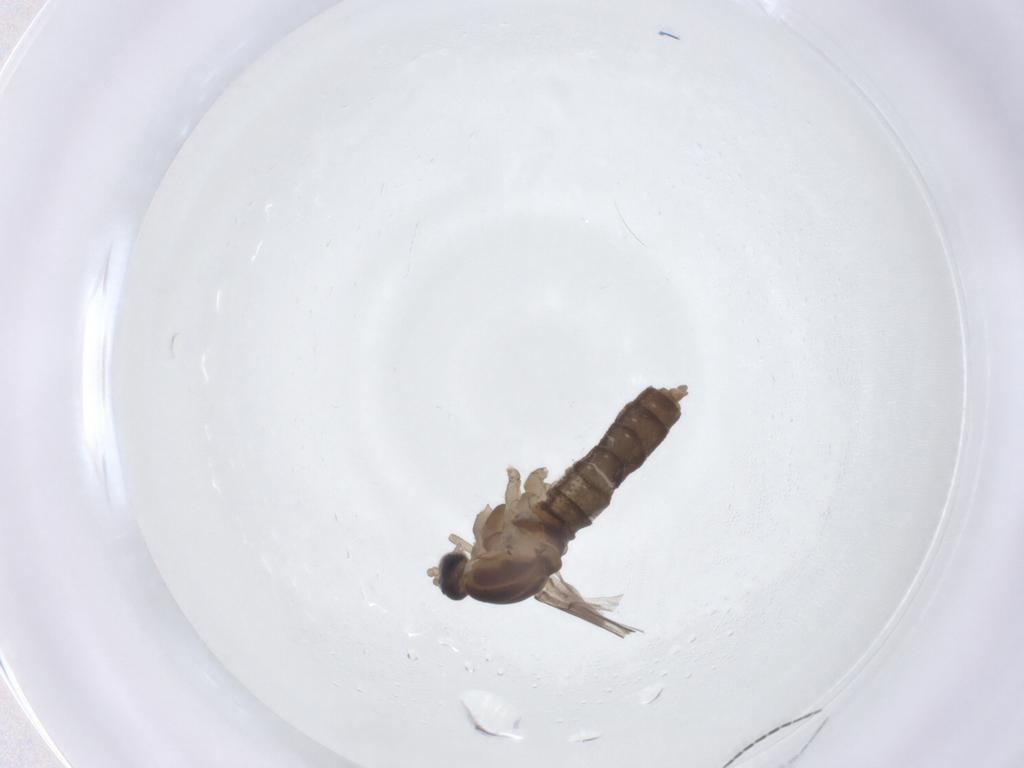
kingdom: Animalia
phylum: Arthropoda
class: Insecta
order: Diptera
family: Cecidomyiidae
